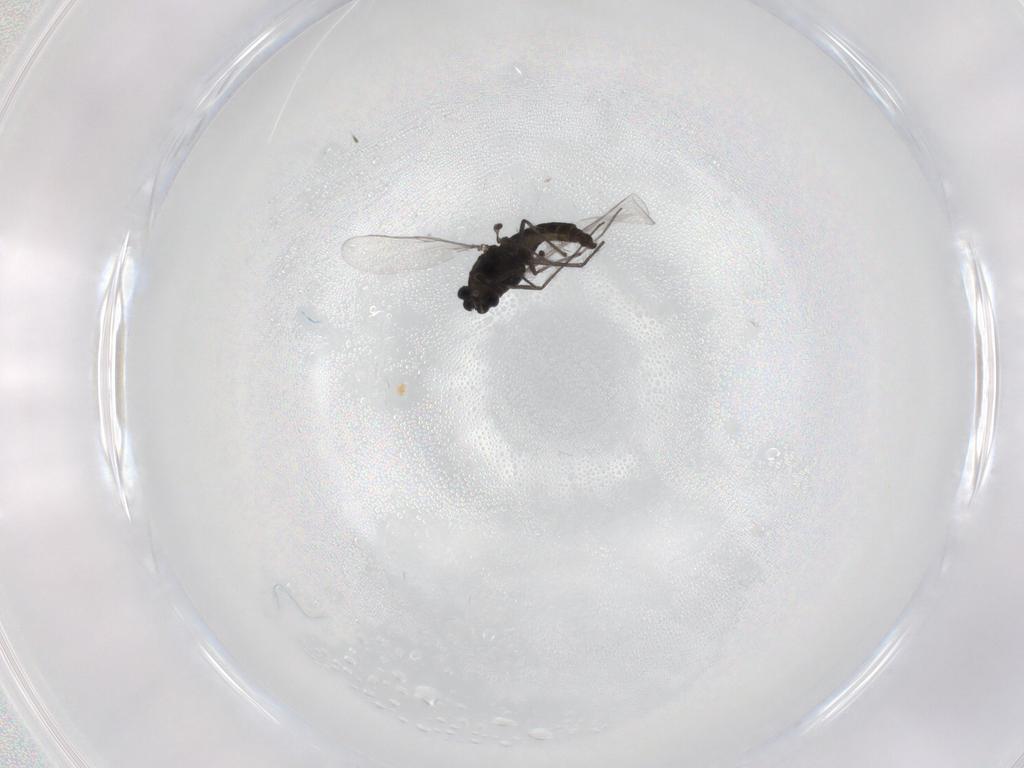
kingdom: Animalia
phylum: Arthropoda
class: Insecta
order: Diptera
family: Chironomidae
